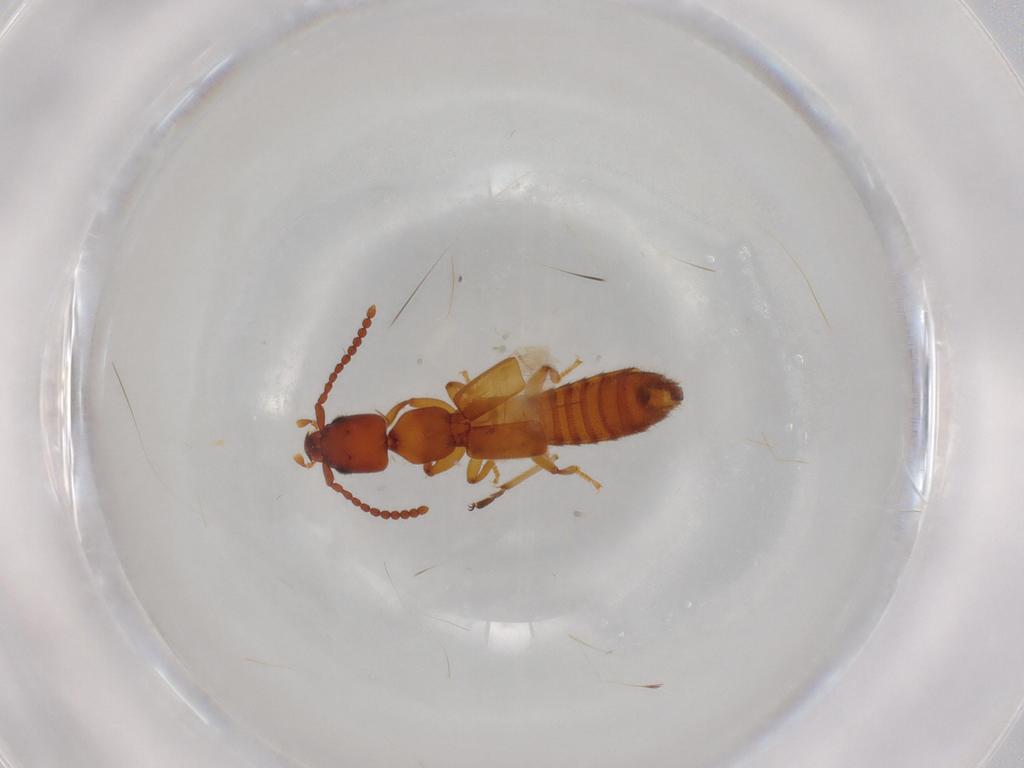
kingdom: Animalia
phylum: Arthropoda
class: Insecta
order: Coleoptera
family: Staphylinidae
